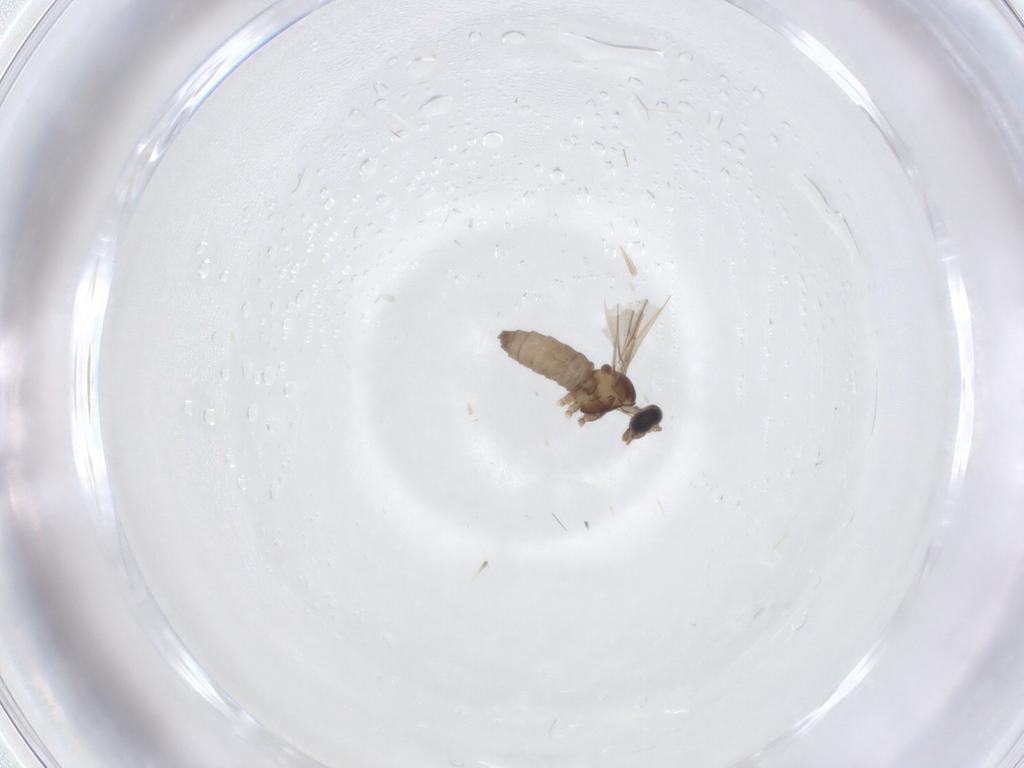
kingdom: Animalia
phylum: Arthropoda
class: Insecta
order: Diptera
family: Cecidomyiidae
